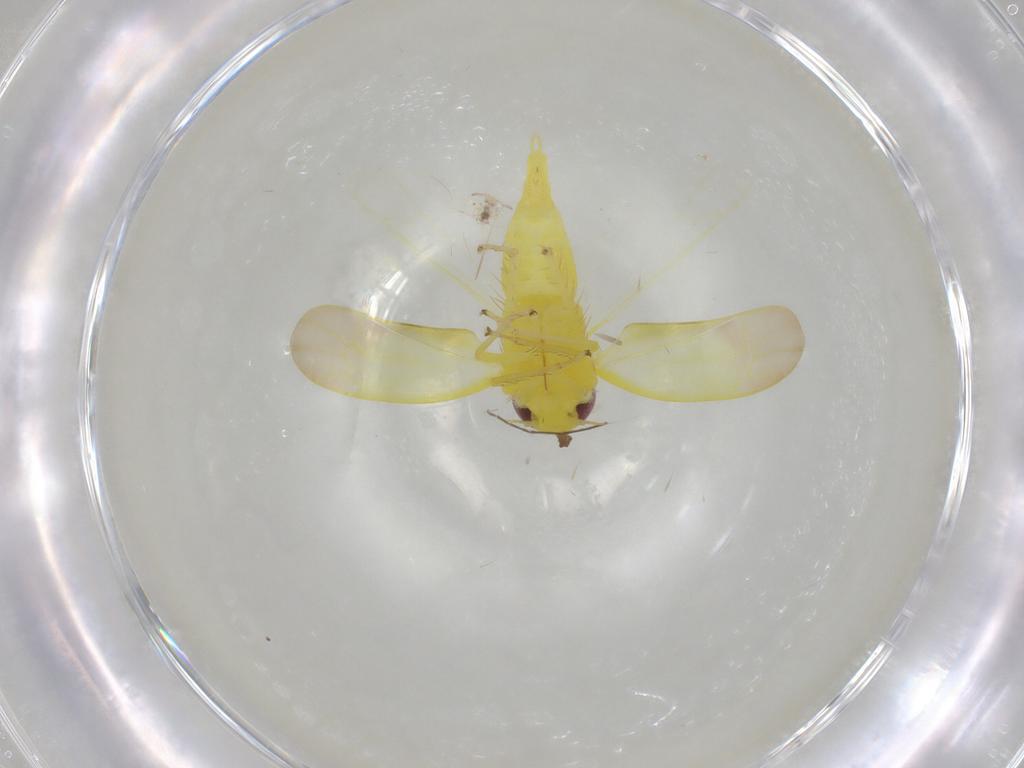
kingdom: Animalia
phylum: Arthropoda
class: Insecta
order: Hemiptera
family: Cicadellidae
